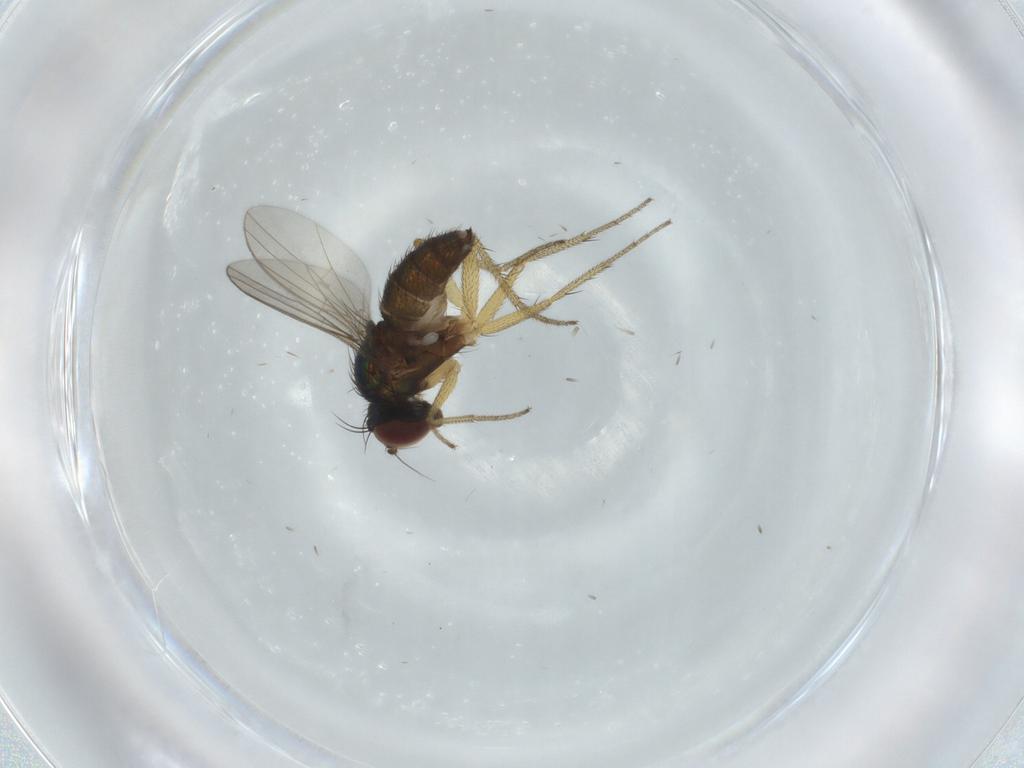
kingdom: Animalia
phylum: Arthropoda
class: Insecta
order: Diptera
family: Dolichopodidae
